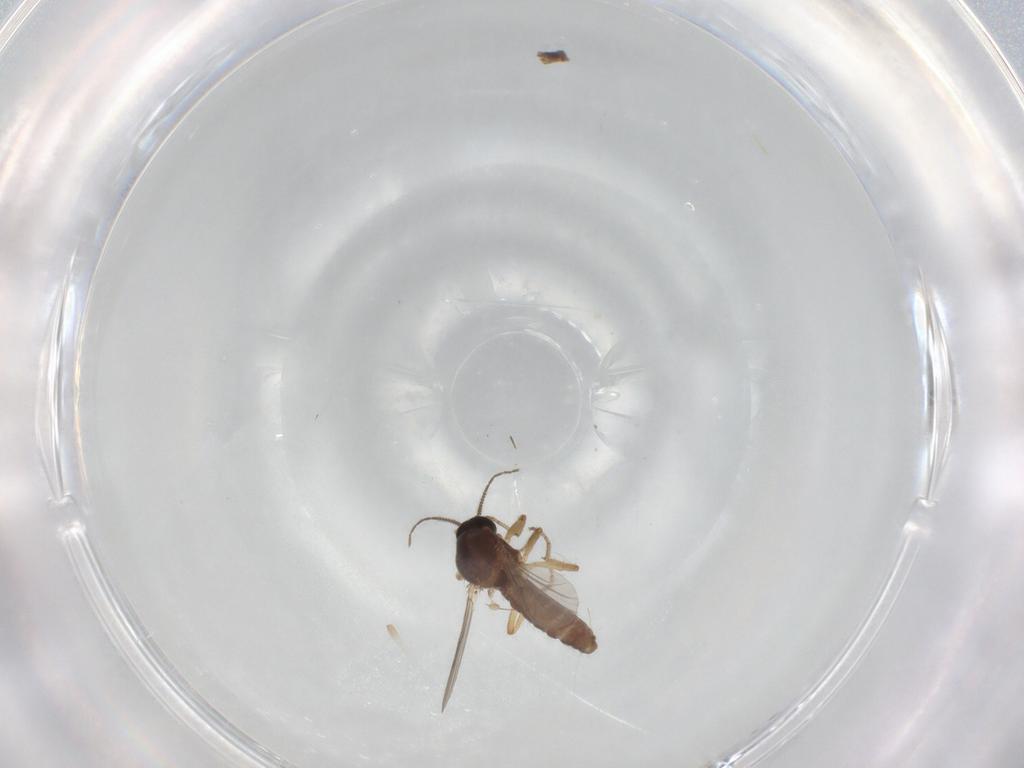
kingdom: Animalia
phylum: Arthropoda
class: Insecta
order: Diptera
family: Ceratopogonidae
